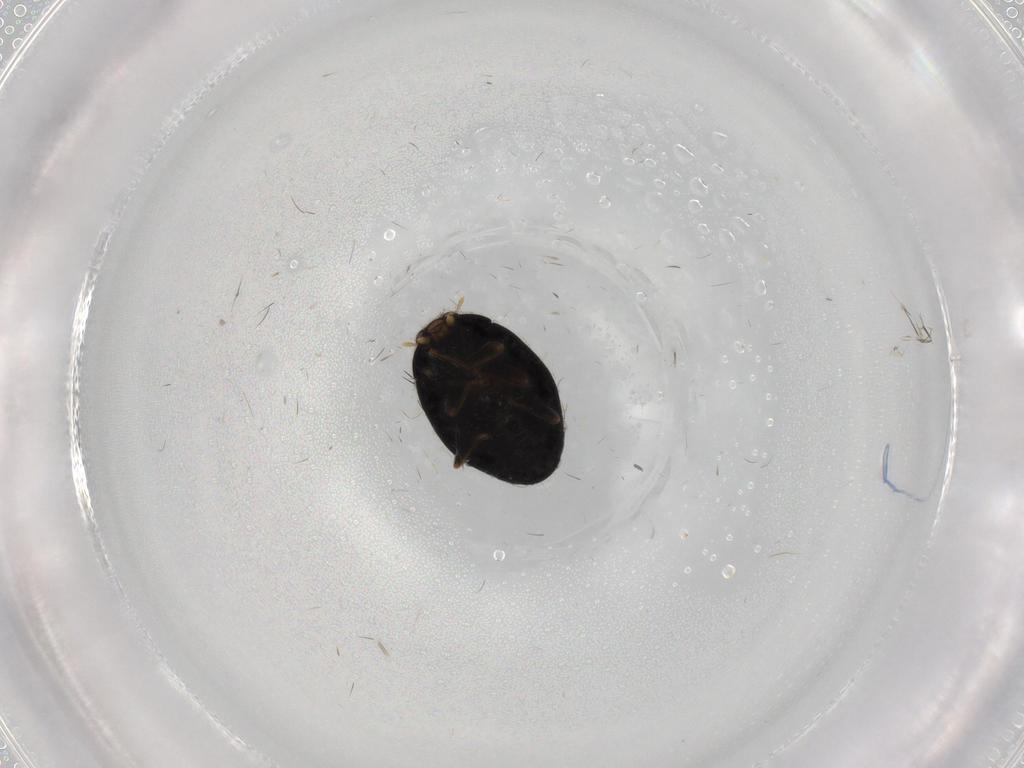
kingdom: Animalia
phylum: Arthropoda
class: Insecta
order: Coleoptera
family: Coccinellidae
